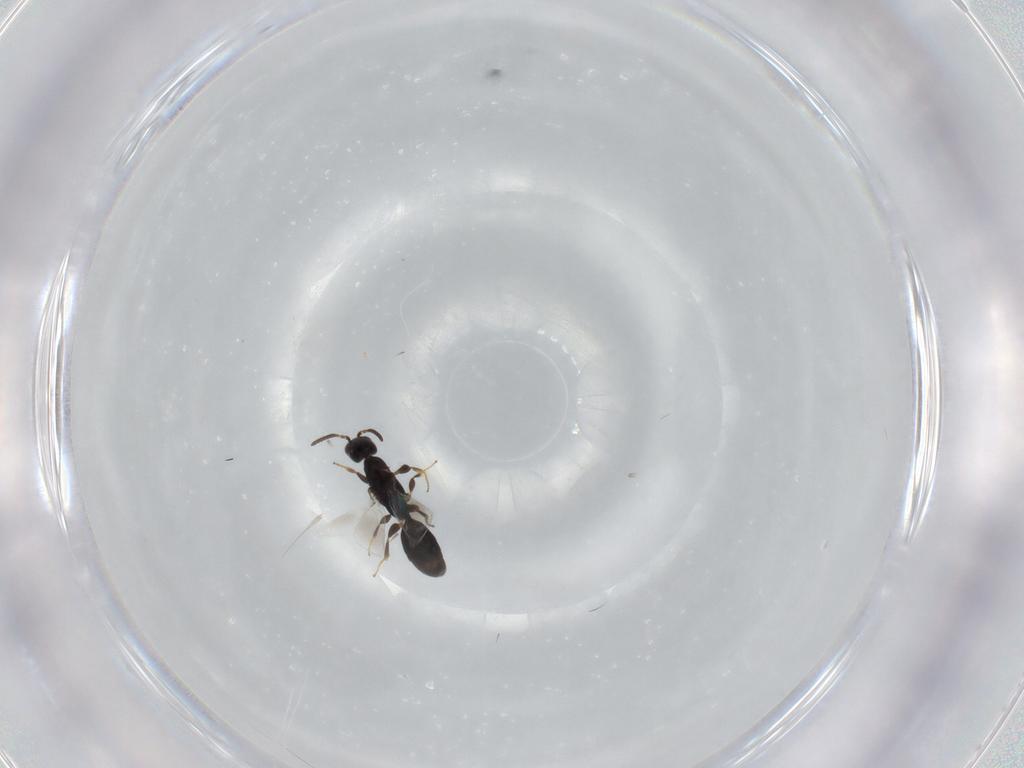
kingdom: Animalia
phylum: Arthropoda
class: Insecta
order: Hymenoptera
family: Bethylidae
